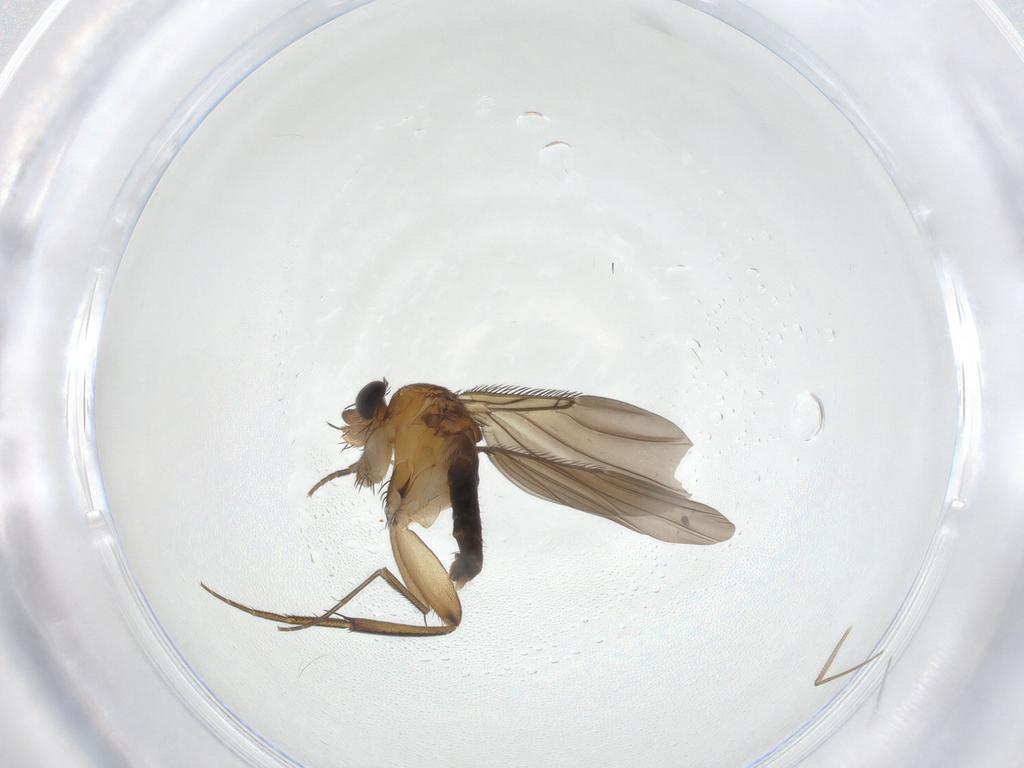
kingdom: Animalia
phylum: Arthropoda
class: Insecta
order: Diptera
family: Phoridae
